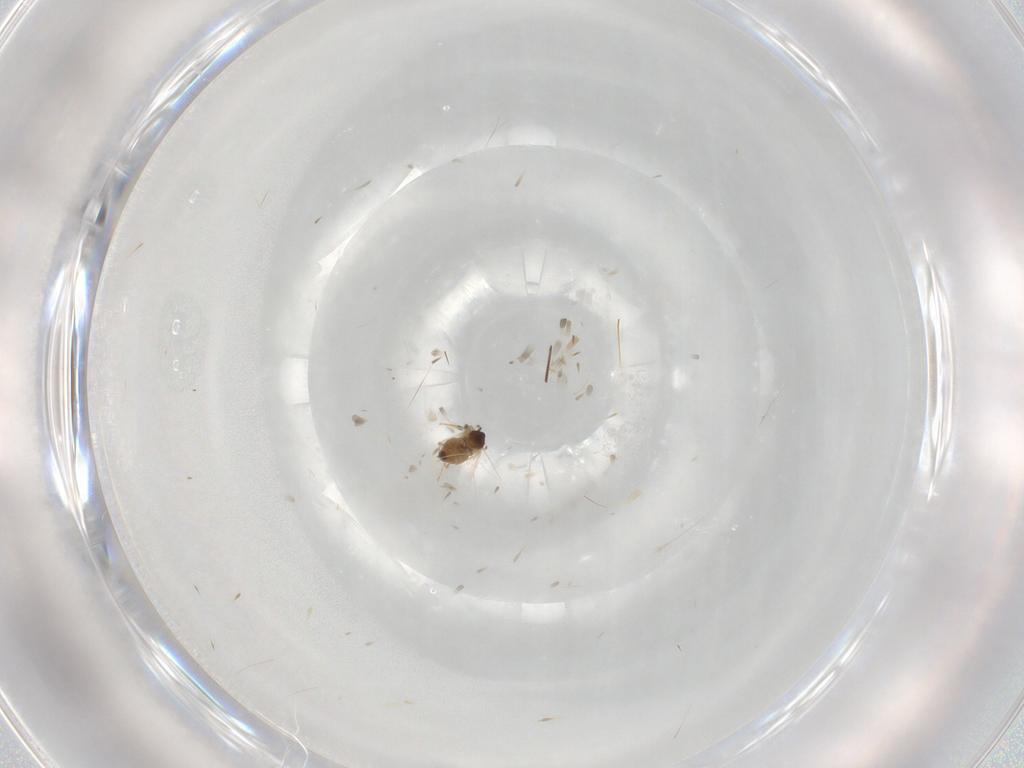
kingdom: Animalia
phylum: Arthropoda
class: Insecta
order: Diptera
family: Cecidomyiidae
